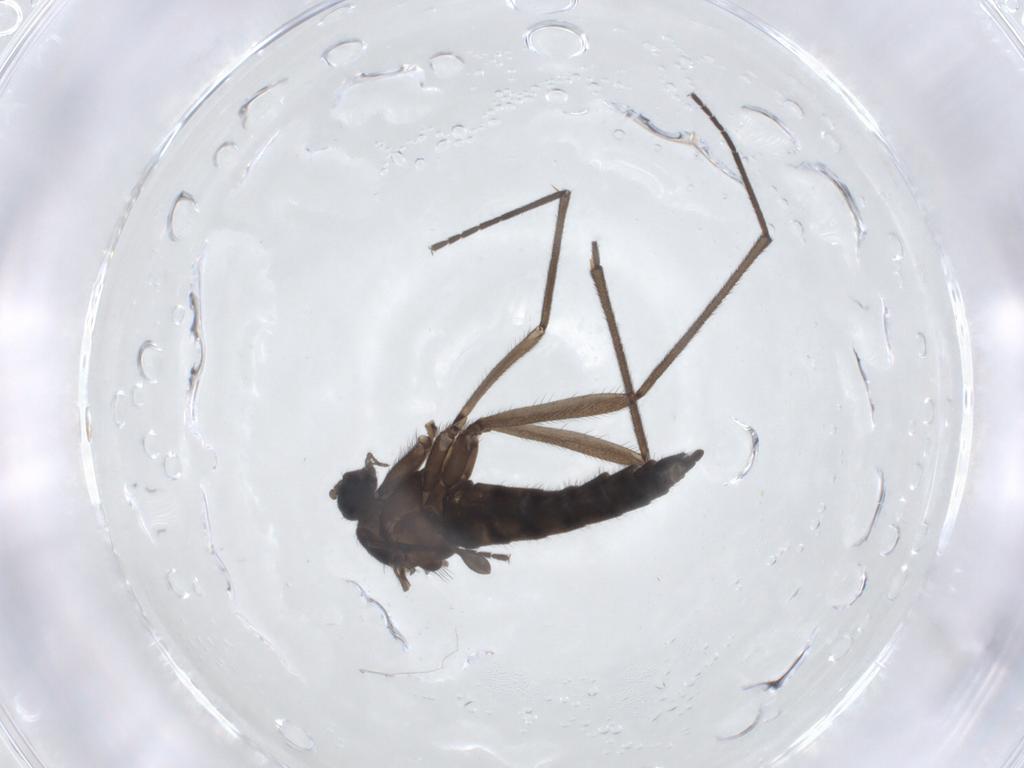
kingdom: Animalia
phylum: Arthropoda
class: Insecta
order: Diptera
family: Sciaridae
